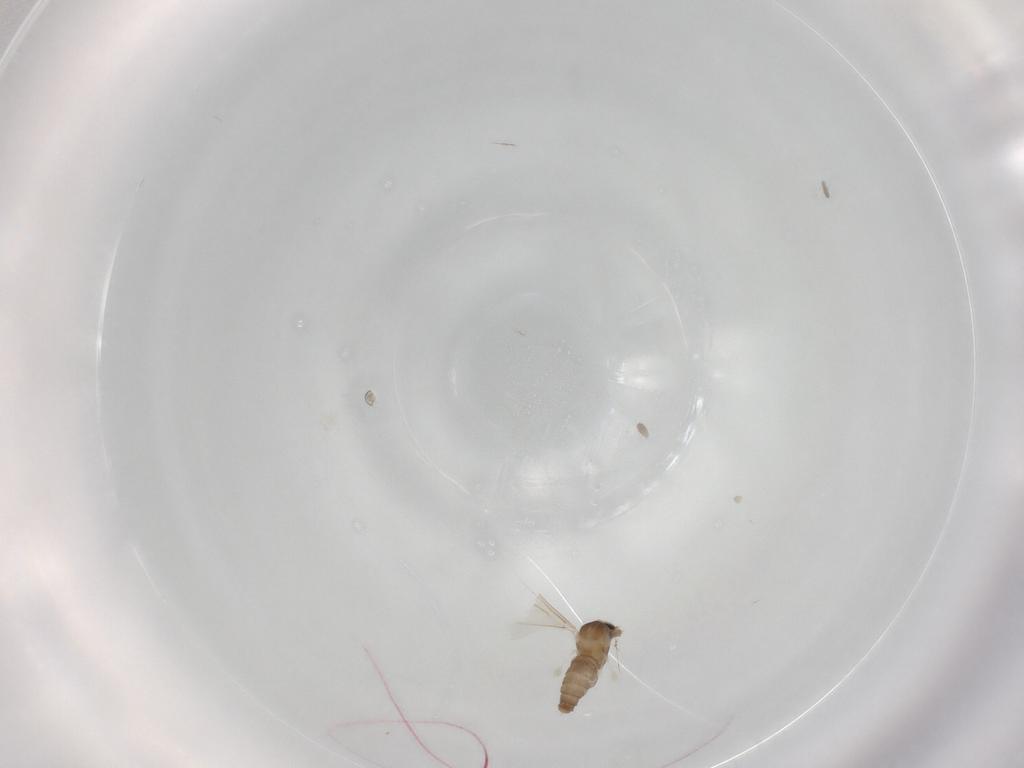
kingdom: Animalia
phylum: Arthropoda
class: Insecta
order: Diptera
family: Cecidomyiidae
